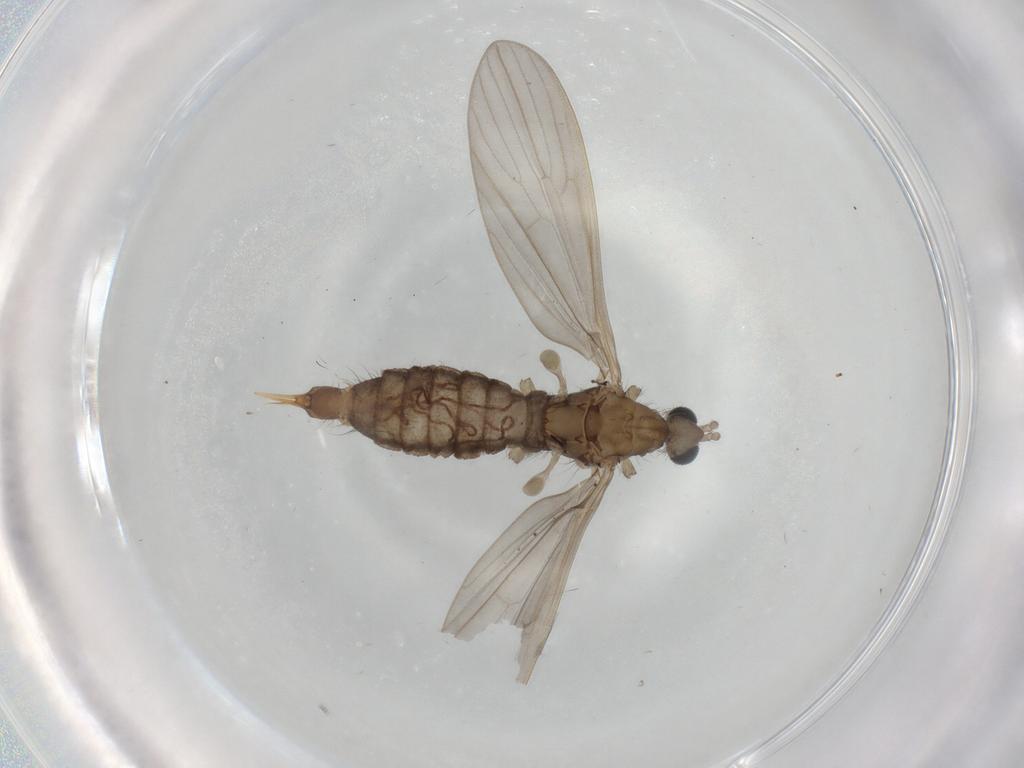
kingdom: Animalia
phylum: Arthropoda
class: Insecta
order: Diptera
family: Limoniidae
